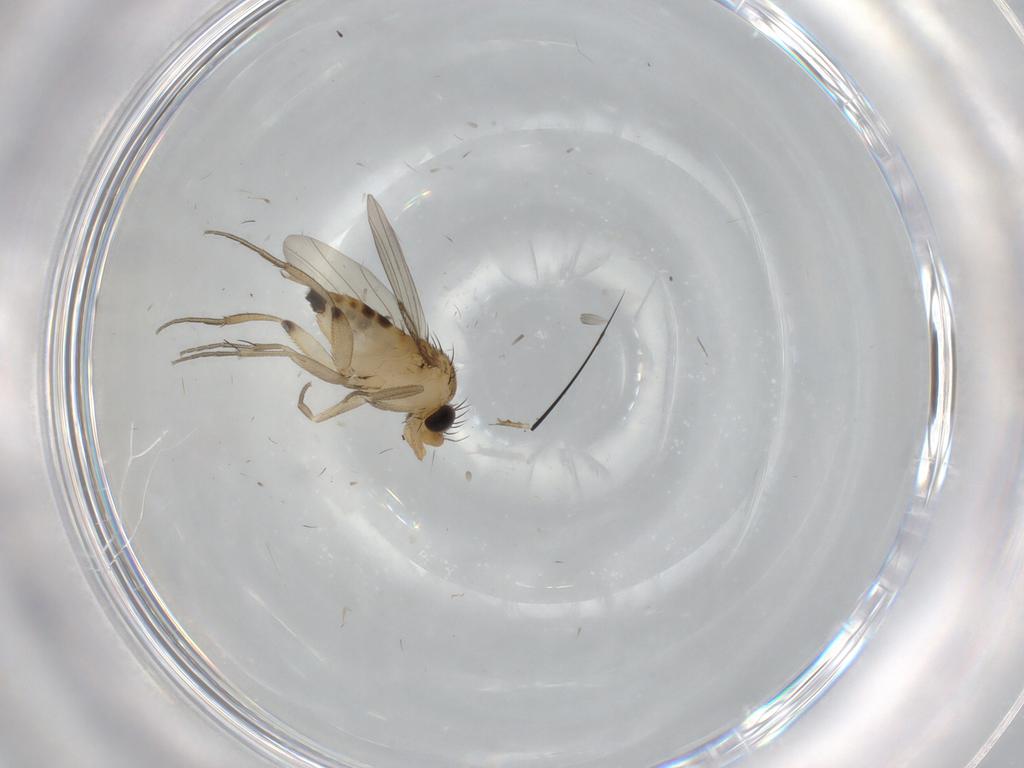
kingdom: Animalia
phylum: Arthropoda
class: Insecta
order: Diptera
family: Phoridae
